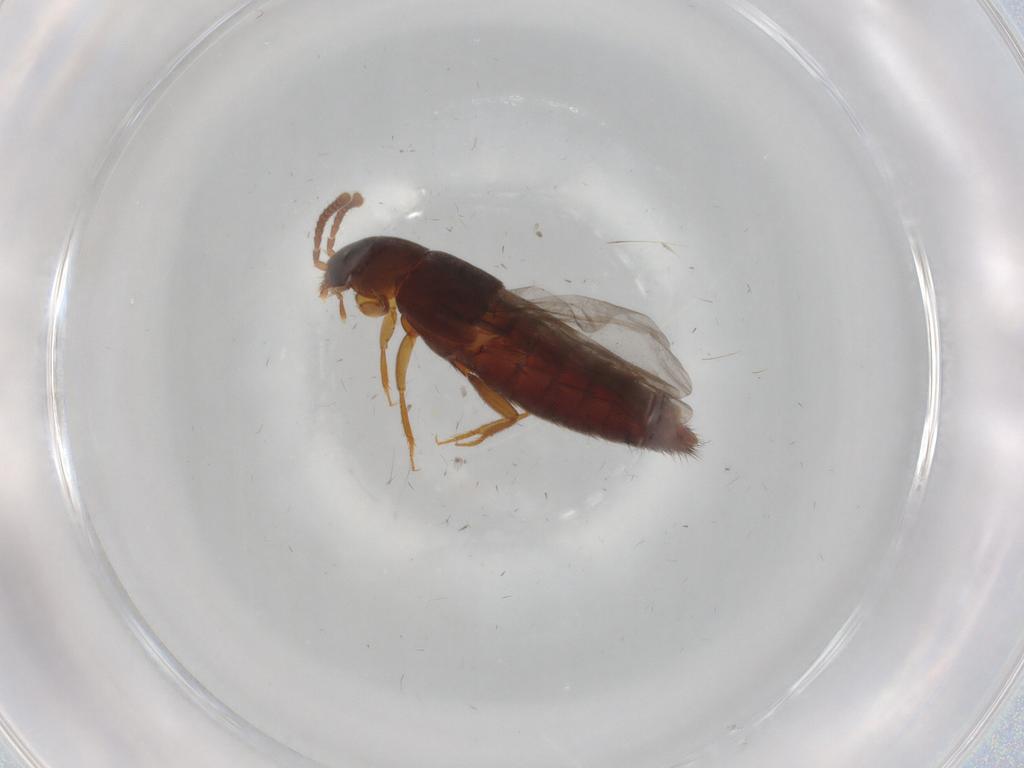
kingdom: Animalia
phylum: Arthropoda
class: Insecta
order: Coleoptera
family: Staphylinidae
